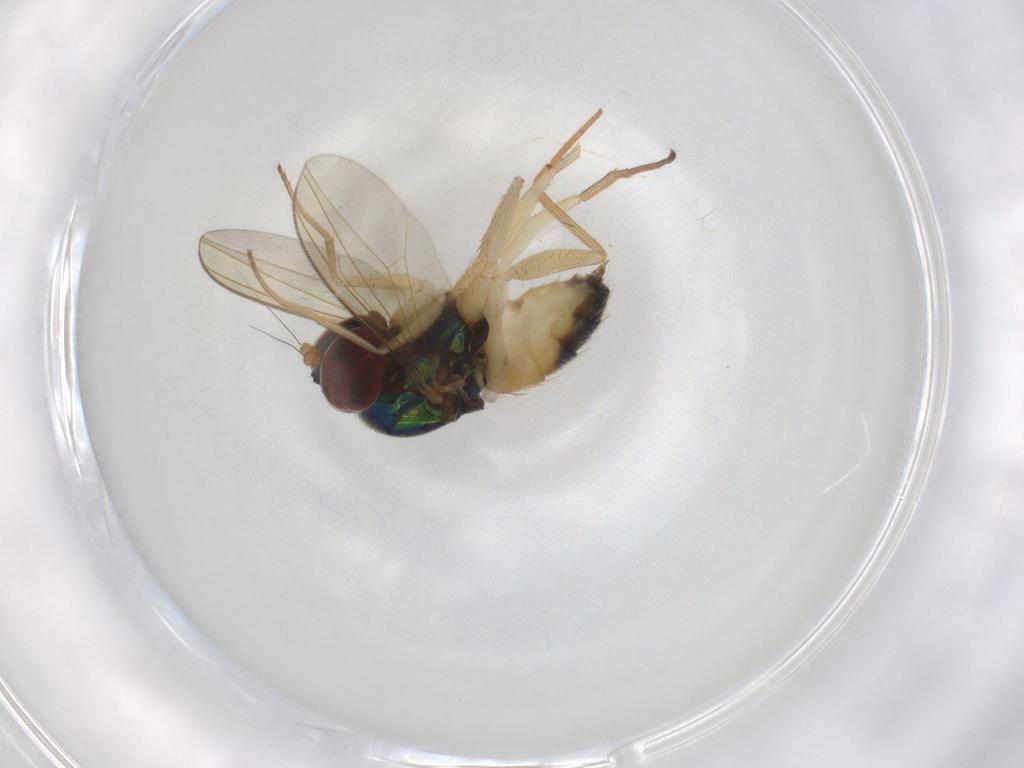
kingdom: Animalia
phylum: Arthropoda
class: Insecta
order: Diptera
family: Dolichopodidae
